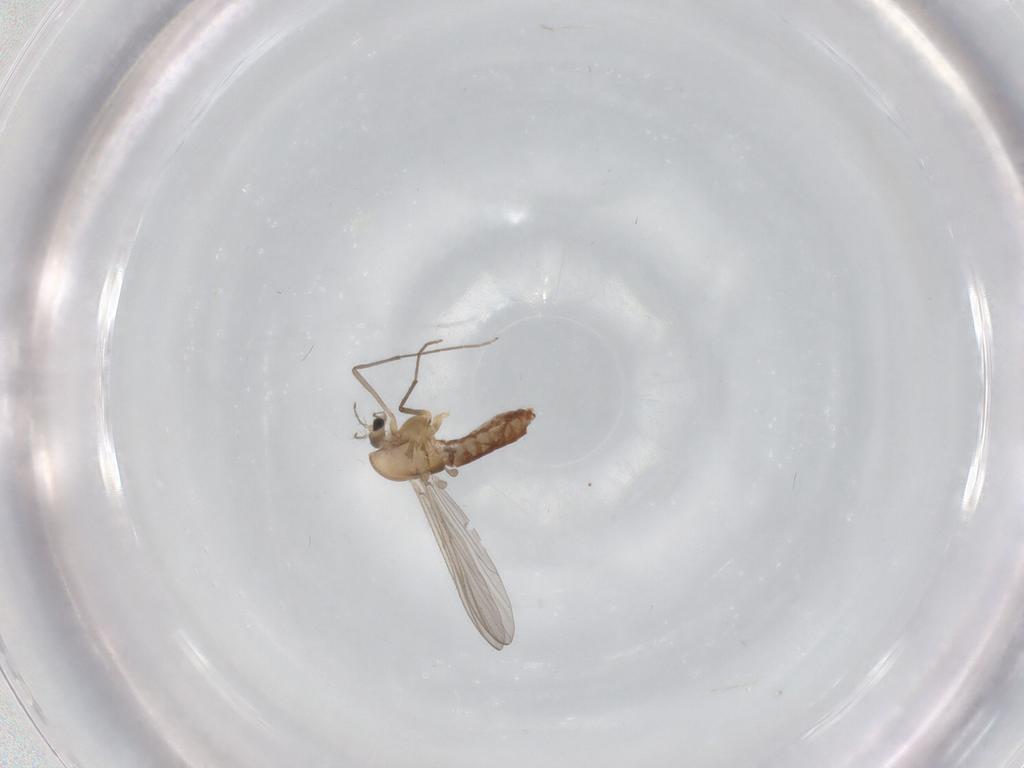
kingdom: Animalia
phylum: Arthropoda
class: Insecta
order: Diptera
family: Chironomidae
